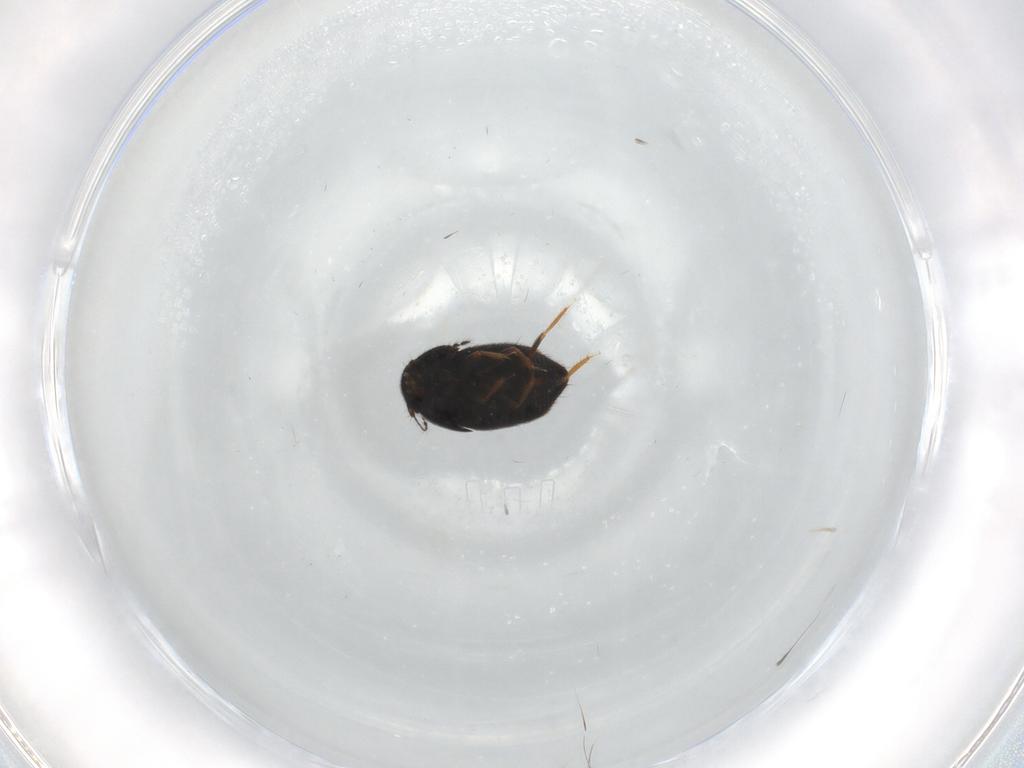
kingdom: Animalia
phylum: Arthropoda
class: Insecta
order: Coleoptera
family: Ptiliidae
